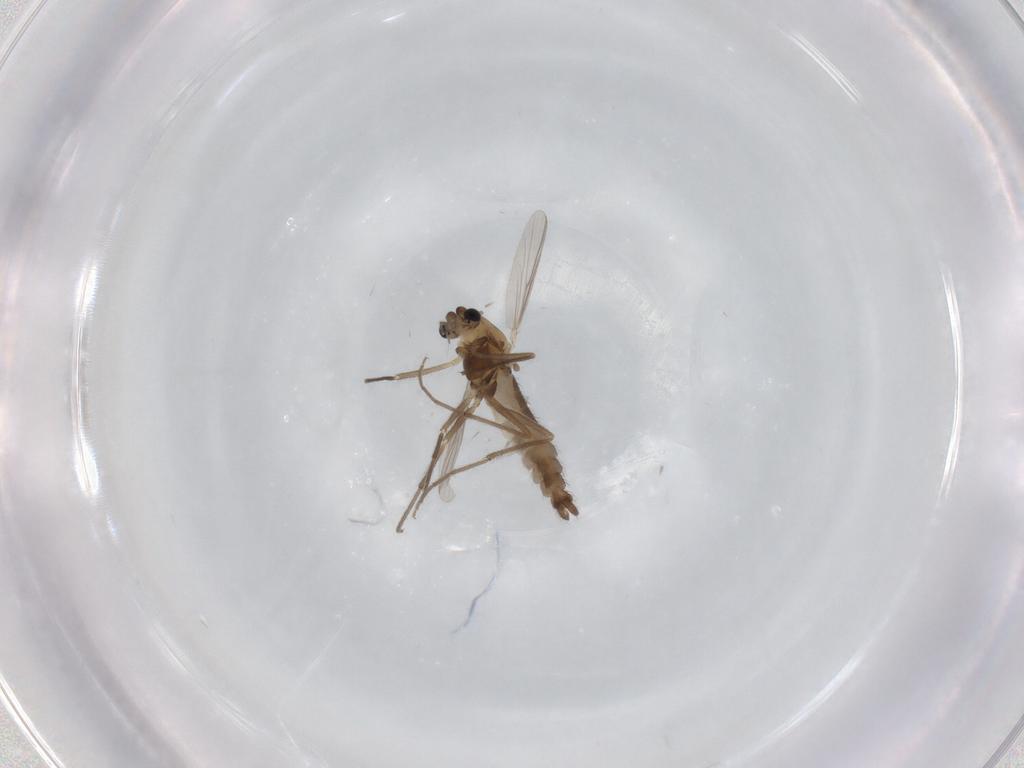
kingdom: Animalia
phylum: Arthropoda
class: Insecta
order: Diptera
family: Chironomidae
